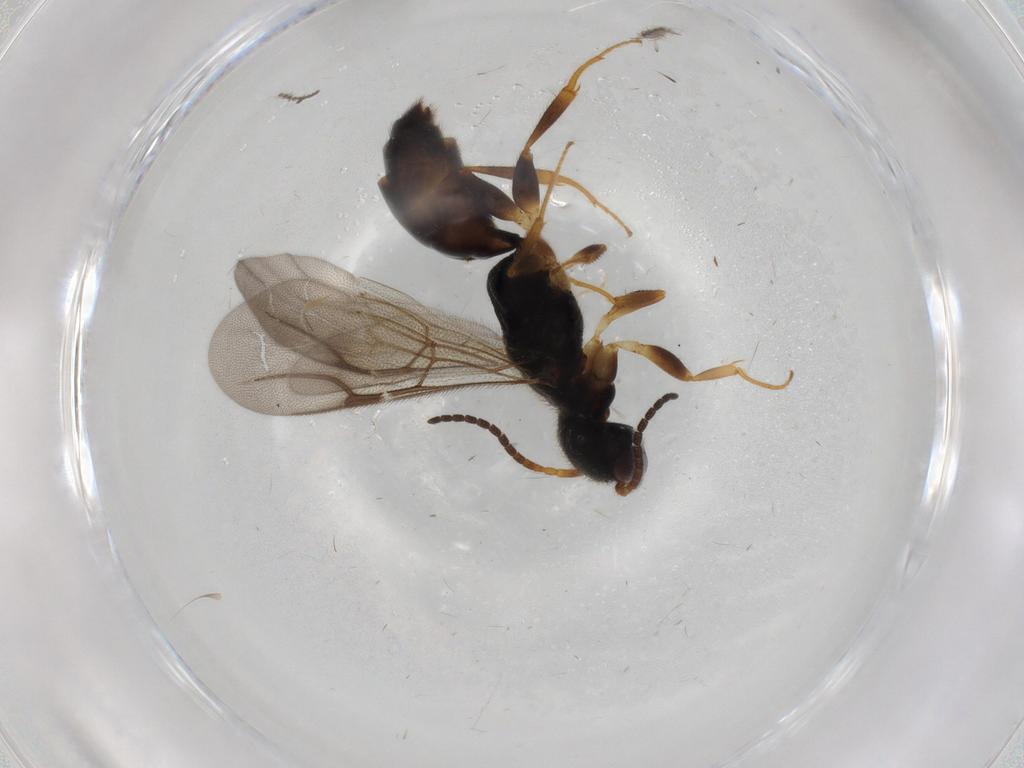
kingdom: Animalia
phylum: Arthropoda
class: Insecta
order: Hymenoptera
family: Bethylidae
